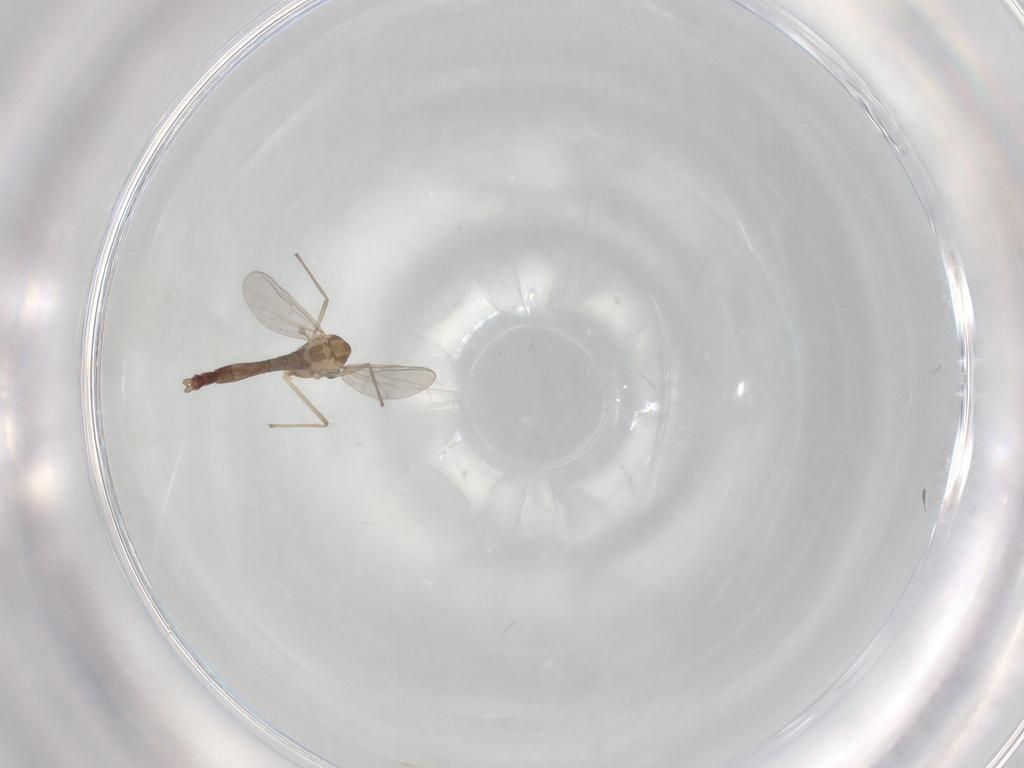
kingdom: Animalia
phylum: Arthropoda
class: Insecta
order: Diptera
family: Chironomidae
